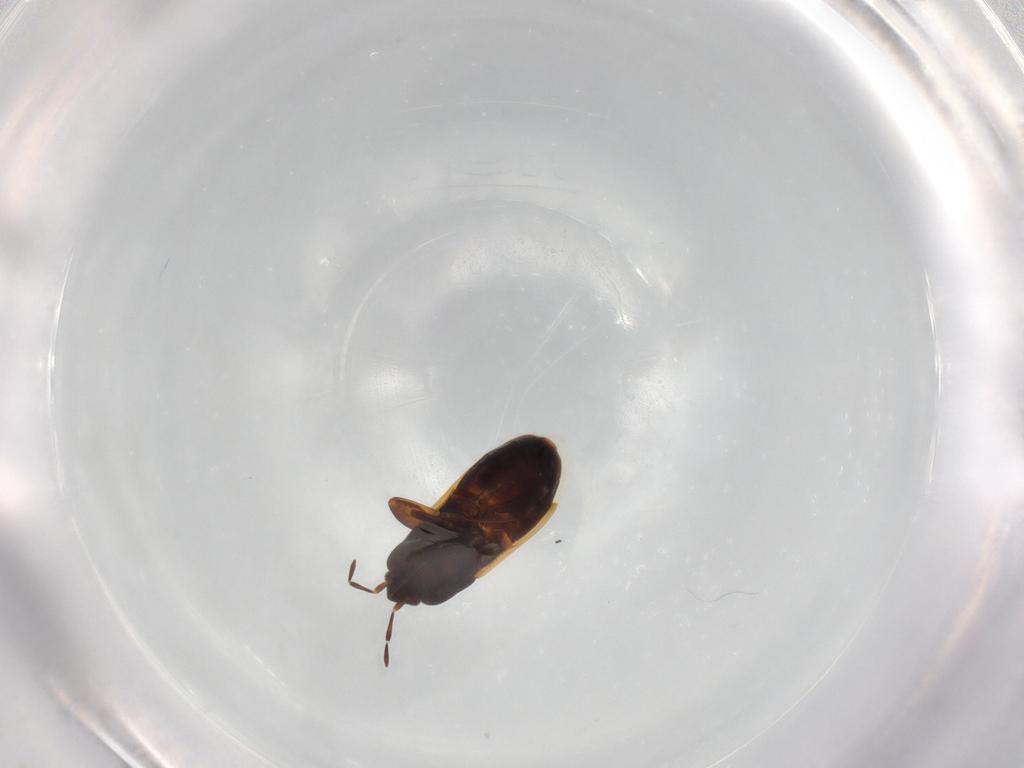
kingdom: Animalia
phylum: Arthropoda
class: Insecta
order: Hemiptera
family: Rhyparochromidae
